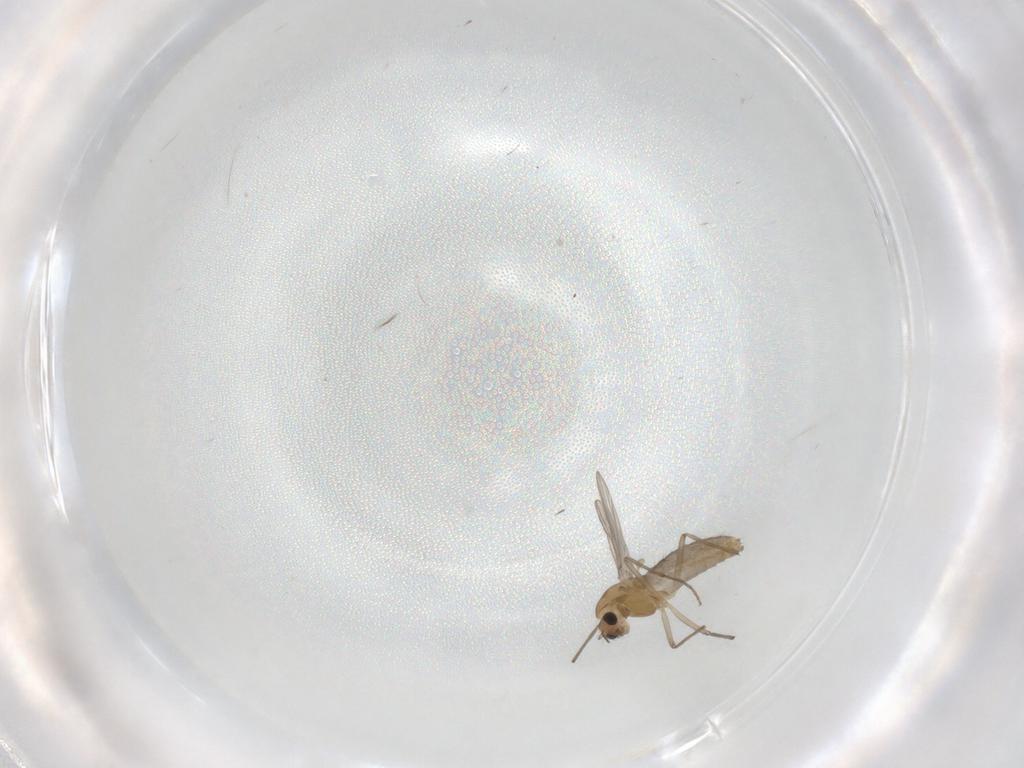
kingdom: Animalia
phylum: Arthropoda
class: Insecta
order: Diptera
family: Chironomidae
